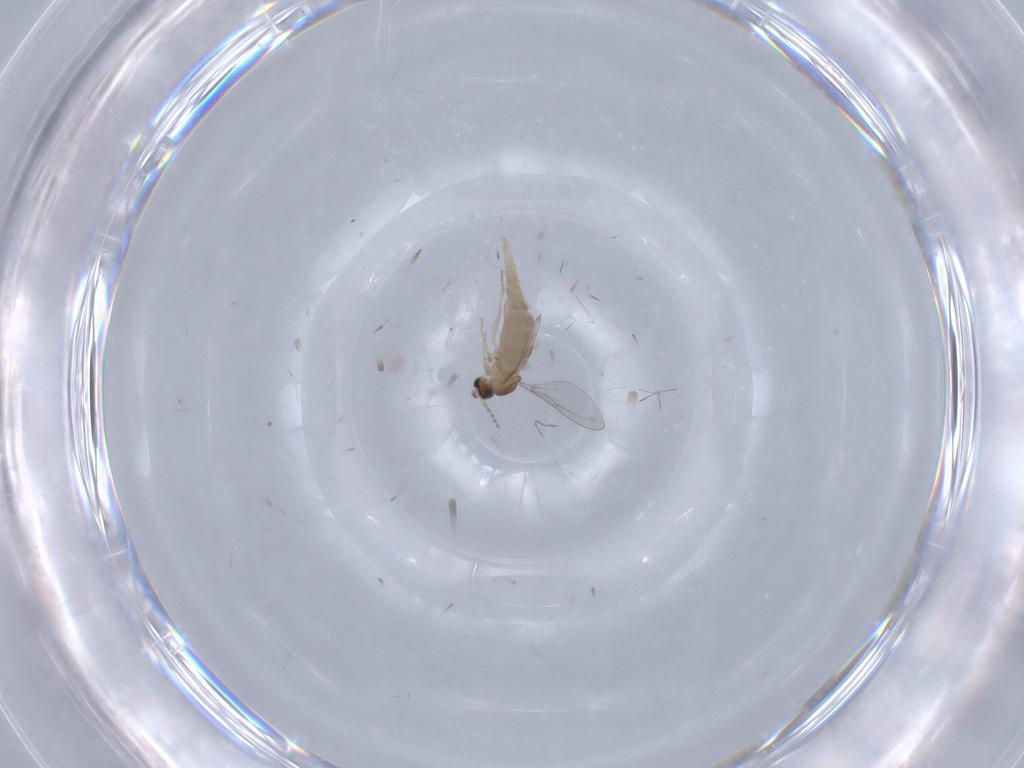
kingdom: Animalia
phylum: Arthropoda
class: Insecta
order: Diptera
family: Cecidomyiidae
